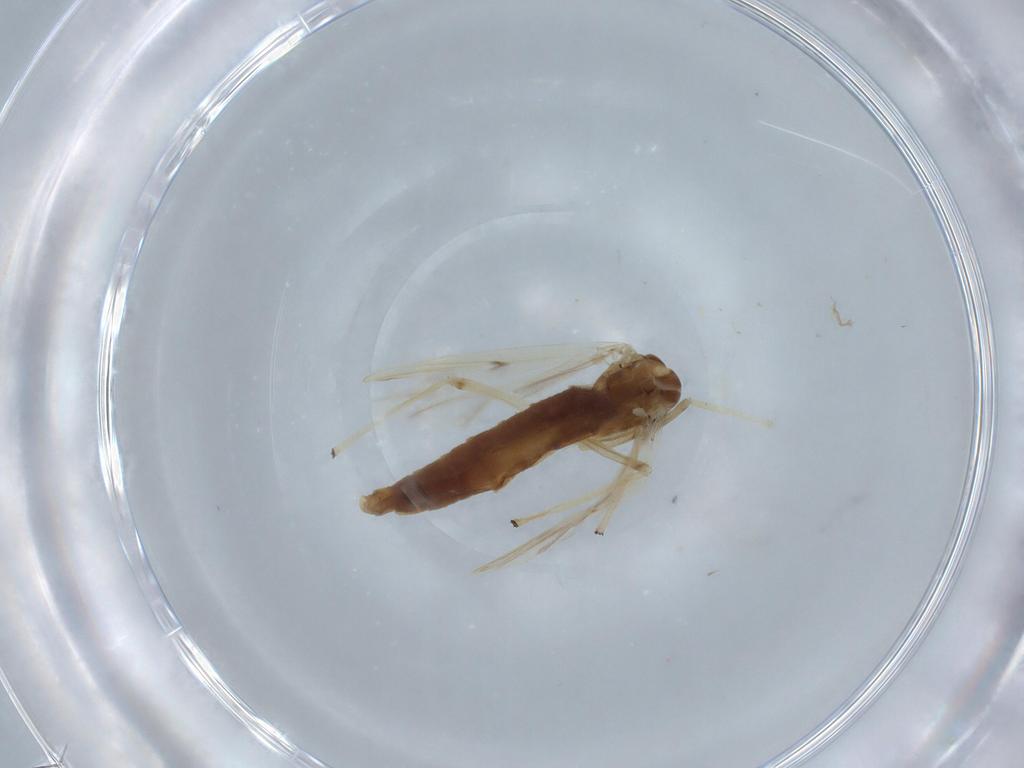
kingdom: Animalia
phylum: Arthropoda
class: Insecta
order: Diptera
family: Chironomidae
